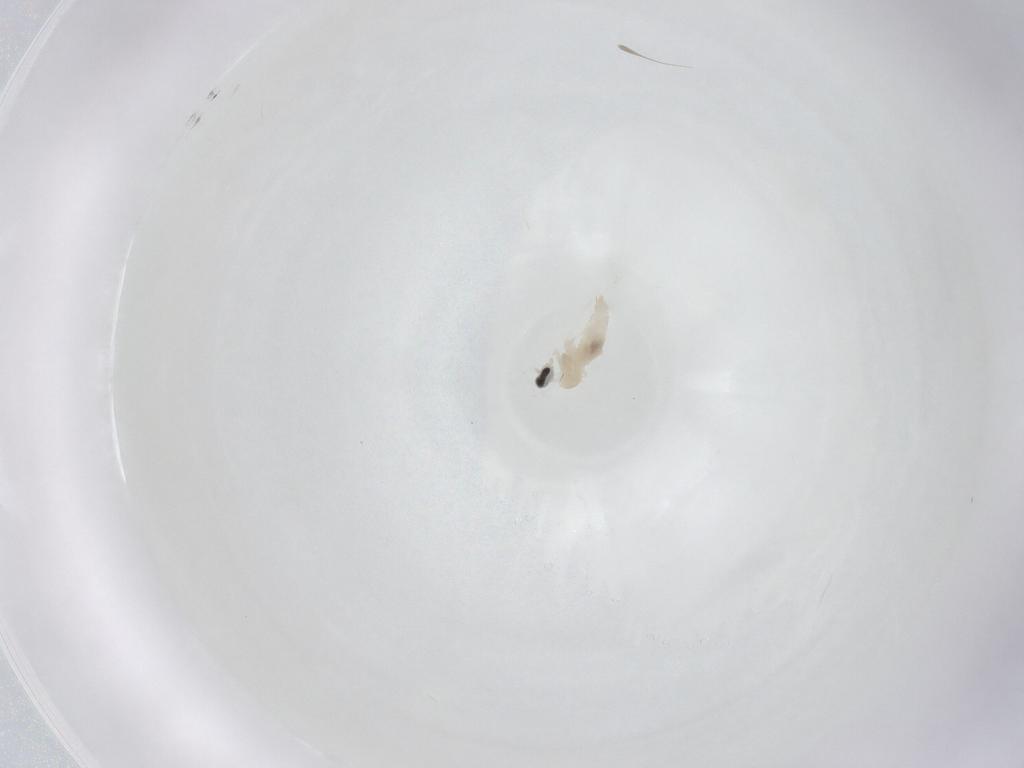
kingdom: Animalia
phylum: Arthropoda
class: Insecta
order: Diptera
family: Cecidomyiidae
